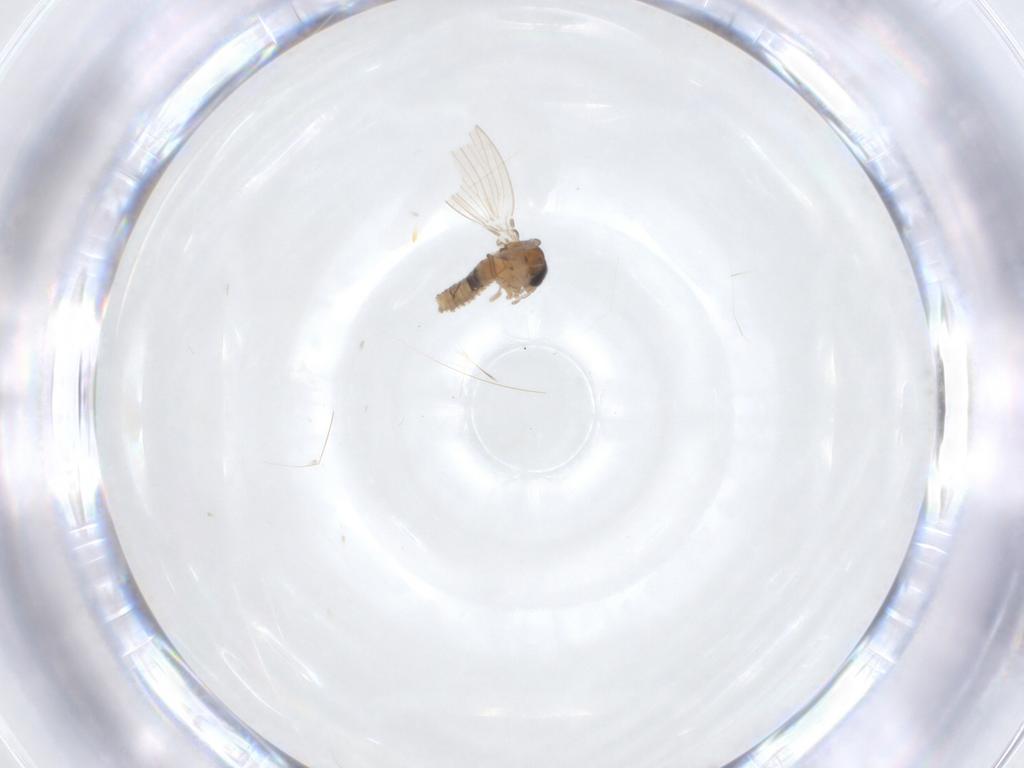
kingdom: Animalia
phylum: Arthropoda
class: Insecta
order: Diptera
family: Psychodidae
